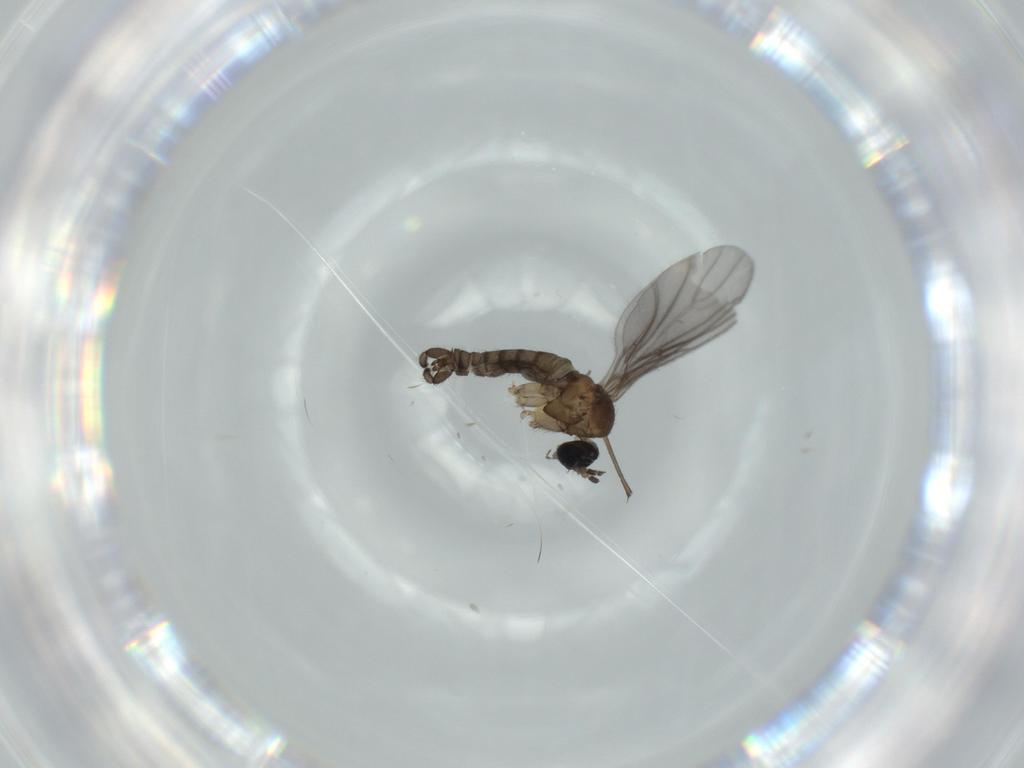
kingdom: Animalia
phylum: Arthropoda
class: Insecta
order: Diptera
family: Sciaridae
